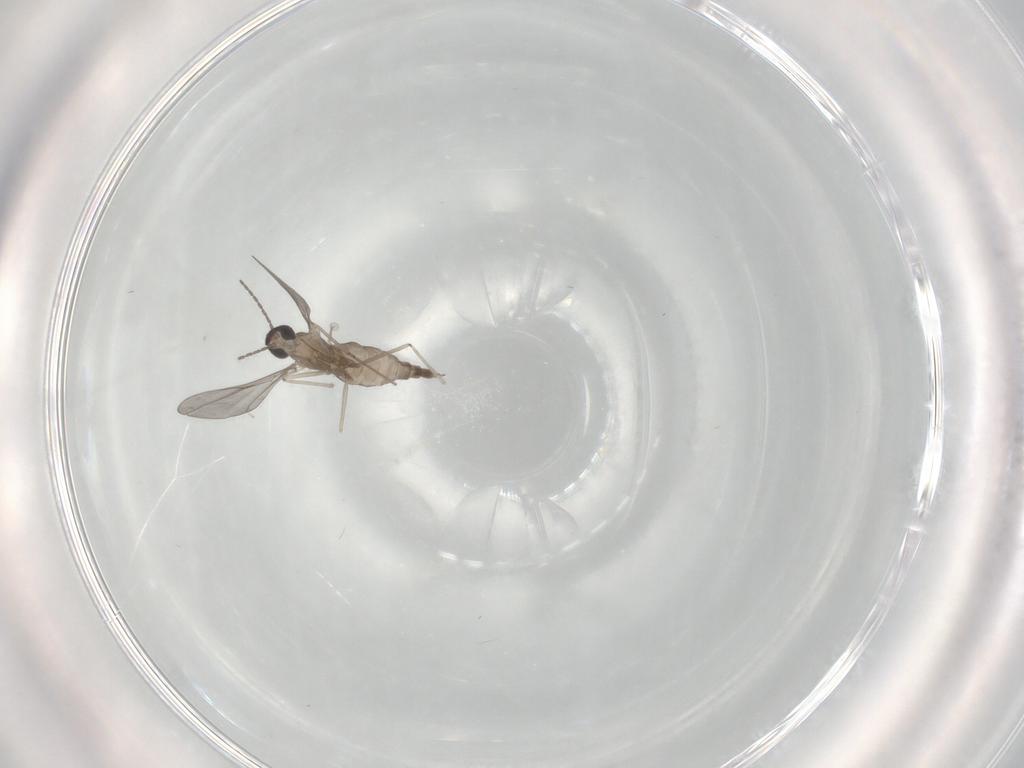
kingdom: Animalia
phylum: Arthropoda
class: Insecta
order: Diptera
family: Cecidomyiidae
